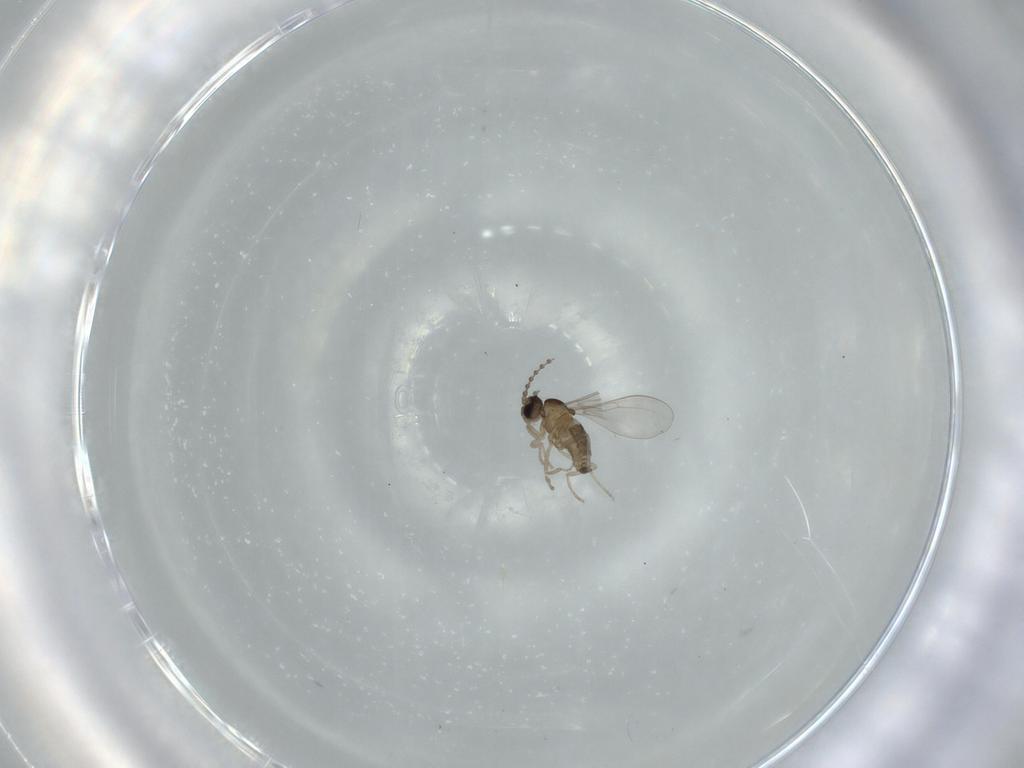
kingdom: Animalia
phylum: Arthropoda
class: Insecta
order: Diptera
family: Cecidomyiidae
